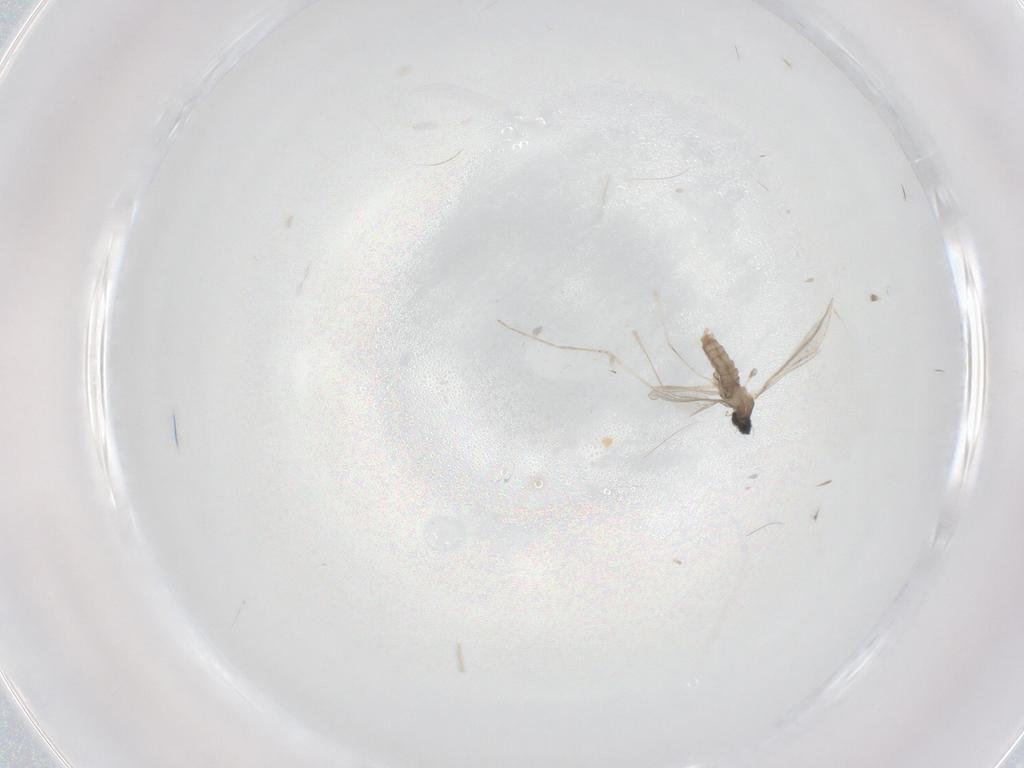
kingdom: Animalia
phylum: Arthropoda
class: Insecta
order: Diptera
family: Cecidomyiidae
